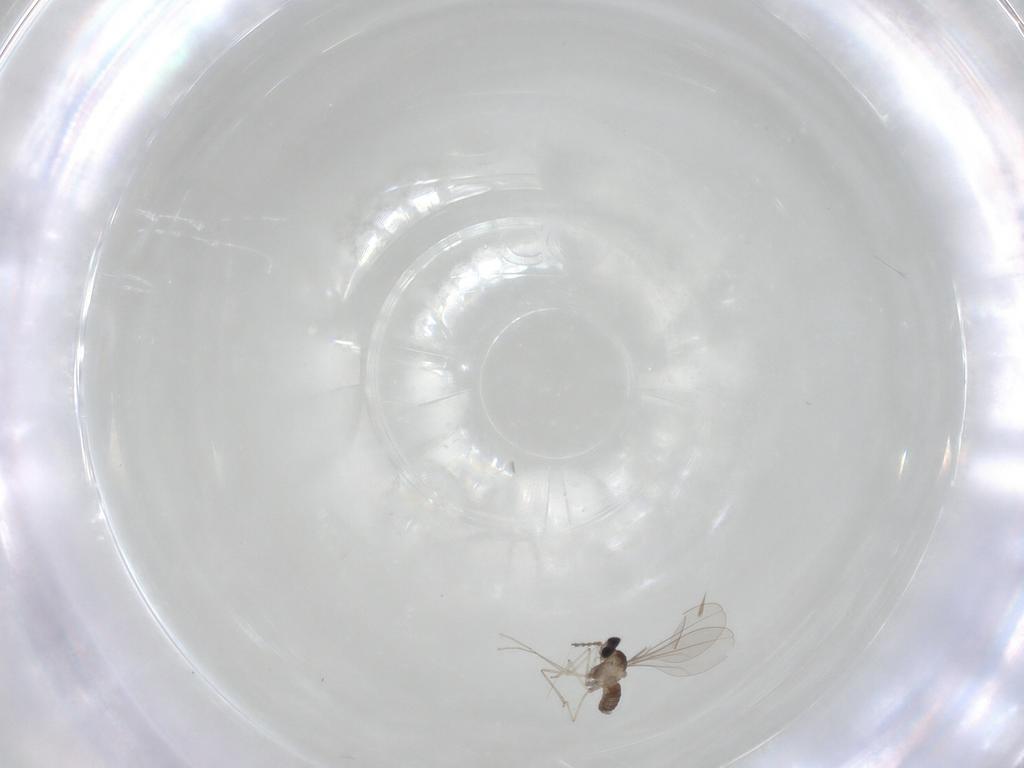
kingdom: Animalia
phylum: Arthropoda
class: Insecta
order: Diptera
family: Cecidomyiidae
